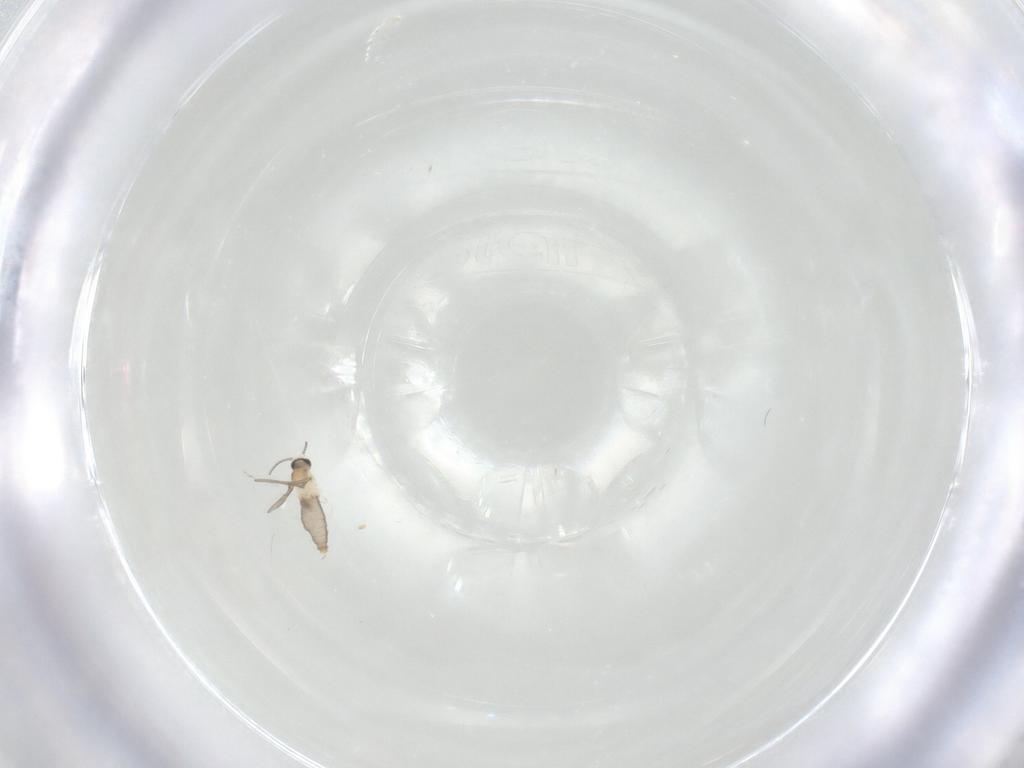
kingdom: Animalia
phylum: Arthropoda
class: Insecta
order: Diptera
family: Cecidomyiidae
